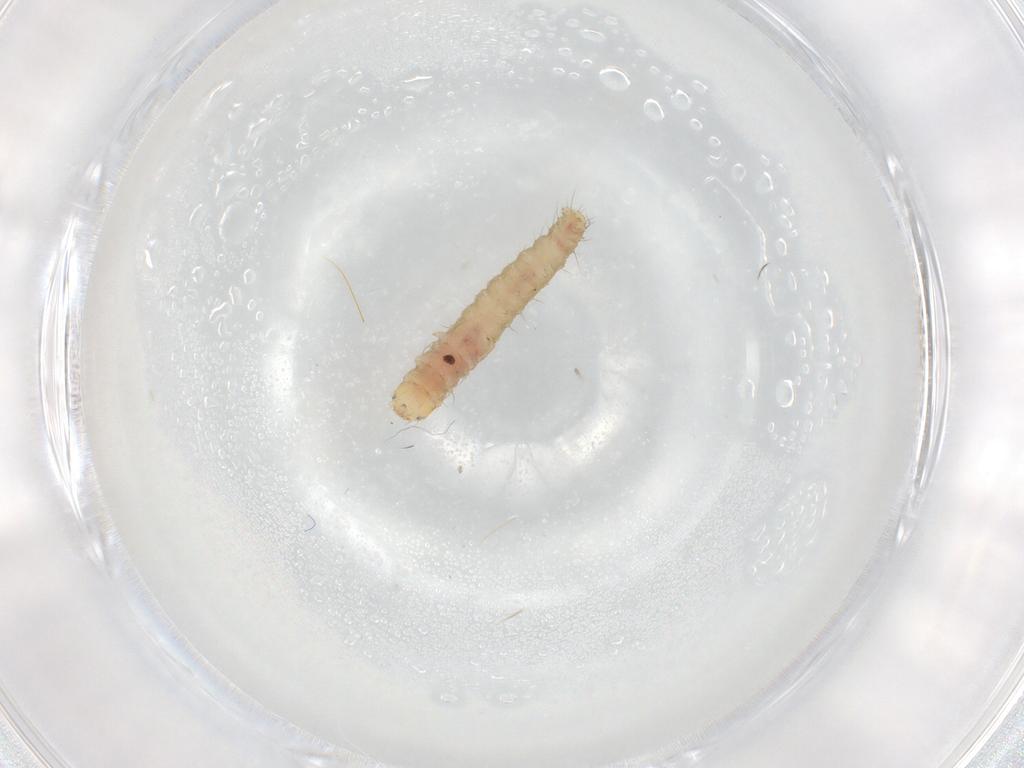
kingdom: Animalia
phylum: Arthropoda
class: Insecta
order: Lepidoptera
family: Gelechiidae
